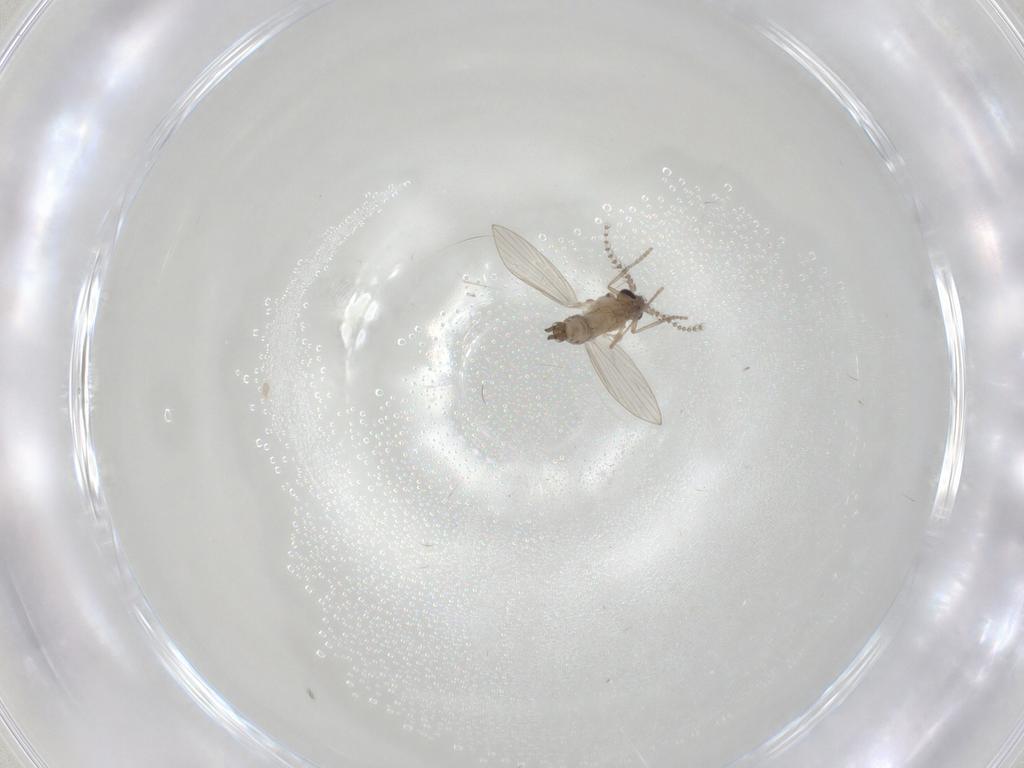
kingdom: Animalia
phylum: Arthropoda
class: Insecta
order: Diptera
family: Psychodidae
